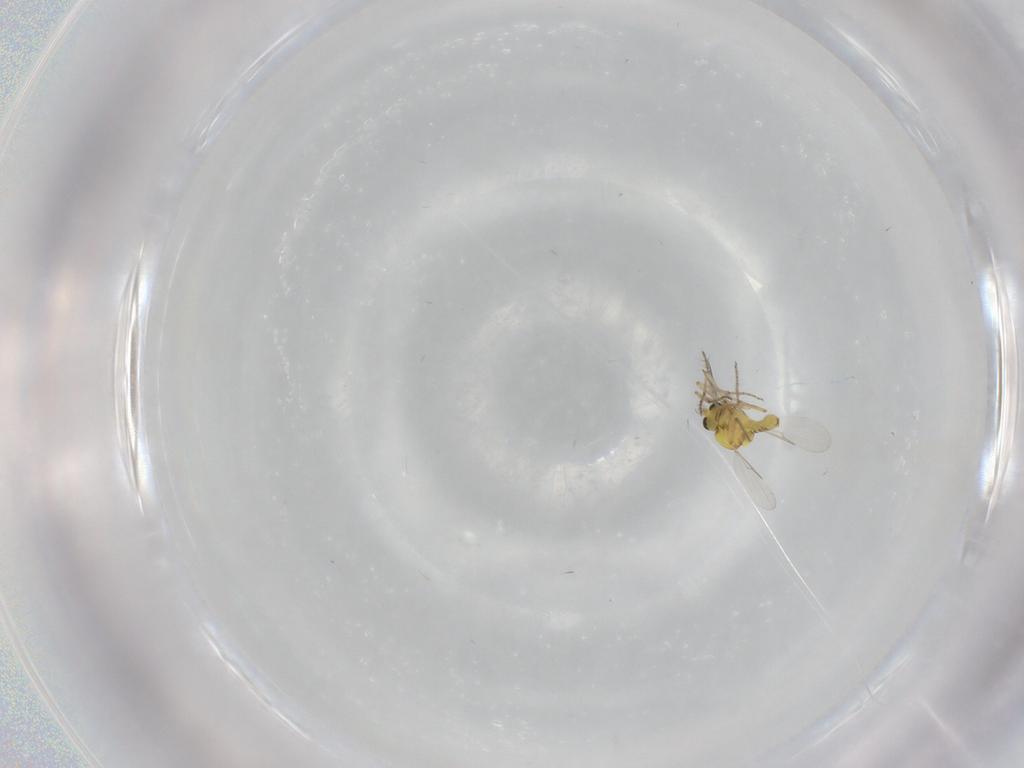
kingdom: Animalia
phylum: Arthropoda
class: Insecta
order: Diptera
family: Ceratopogonidae
